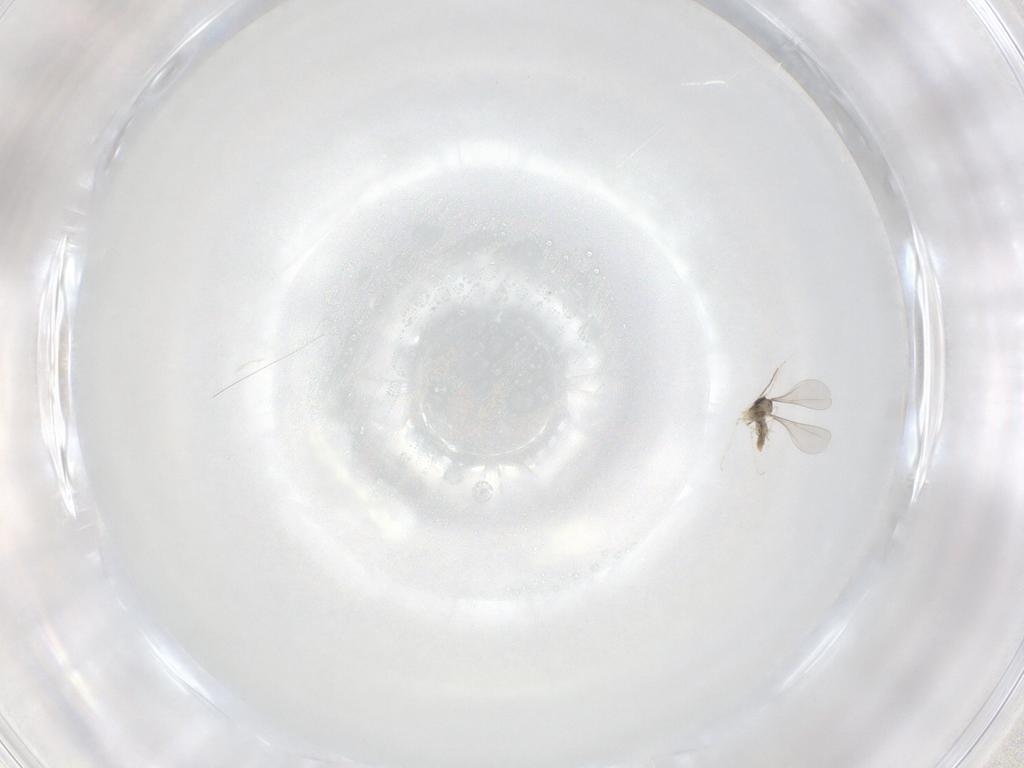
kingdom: Animalia
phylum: Arthropoda
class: Insecta
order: Diptera
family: Cecidomyiidae
